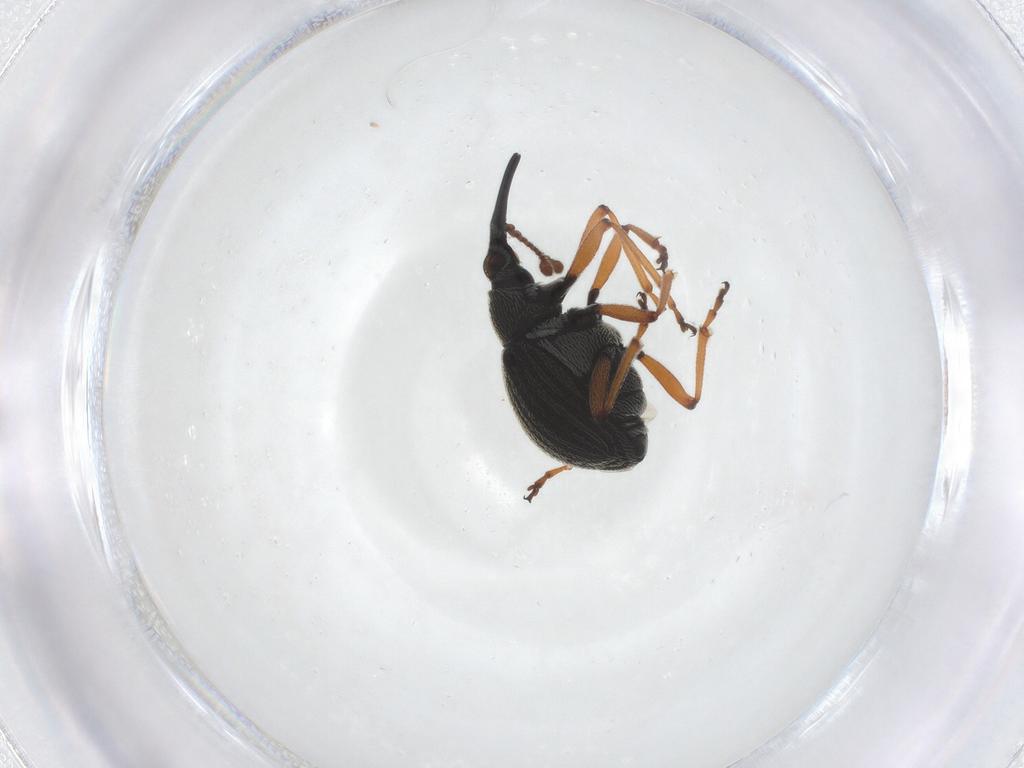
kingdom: Animalia
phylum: Arthropoda
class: Insecta
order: Coleoptera
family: Brentidae
